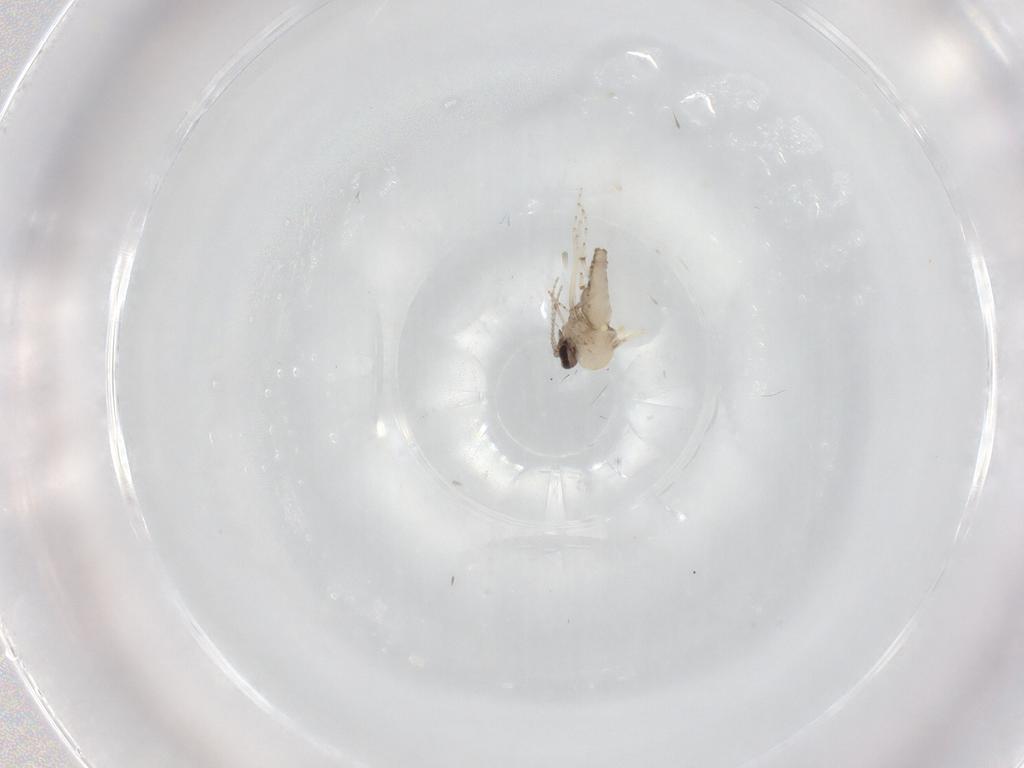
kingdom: Animalia
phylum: Arthropoda
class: Insecta
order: Diptera
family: Ceratopogonidae
